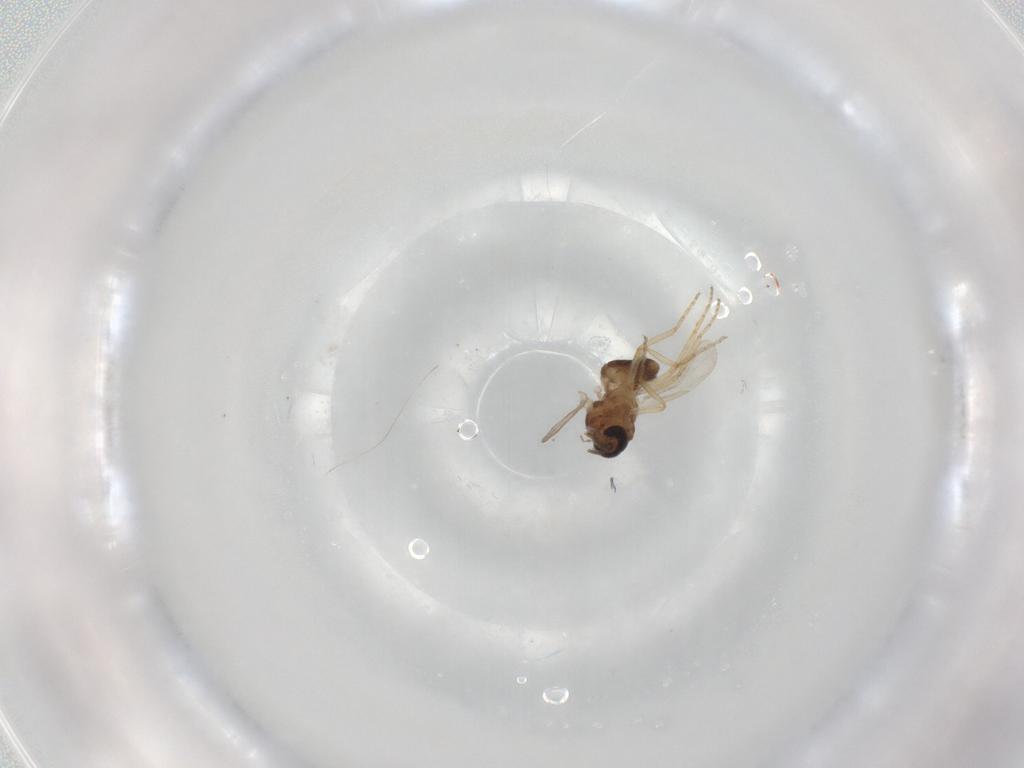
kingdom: Animalia
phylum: Arthropoda
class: Insecta
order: Diptera
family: Ceratopogonidae
